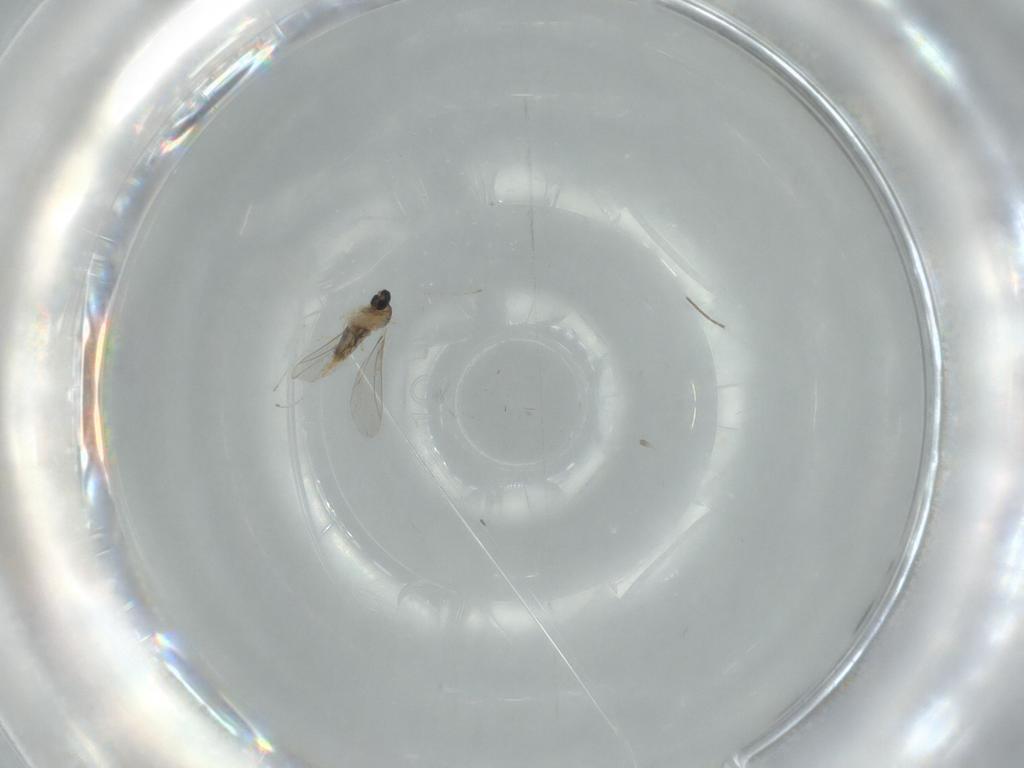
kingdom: Animalia
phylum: Arthropoda
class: Insecta
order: Diptera
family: Cecidomyiidae
